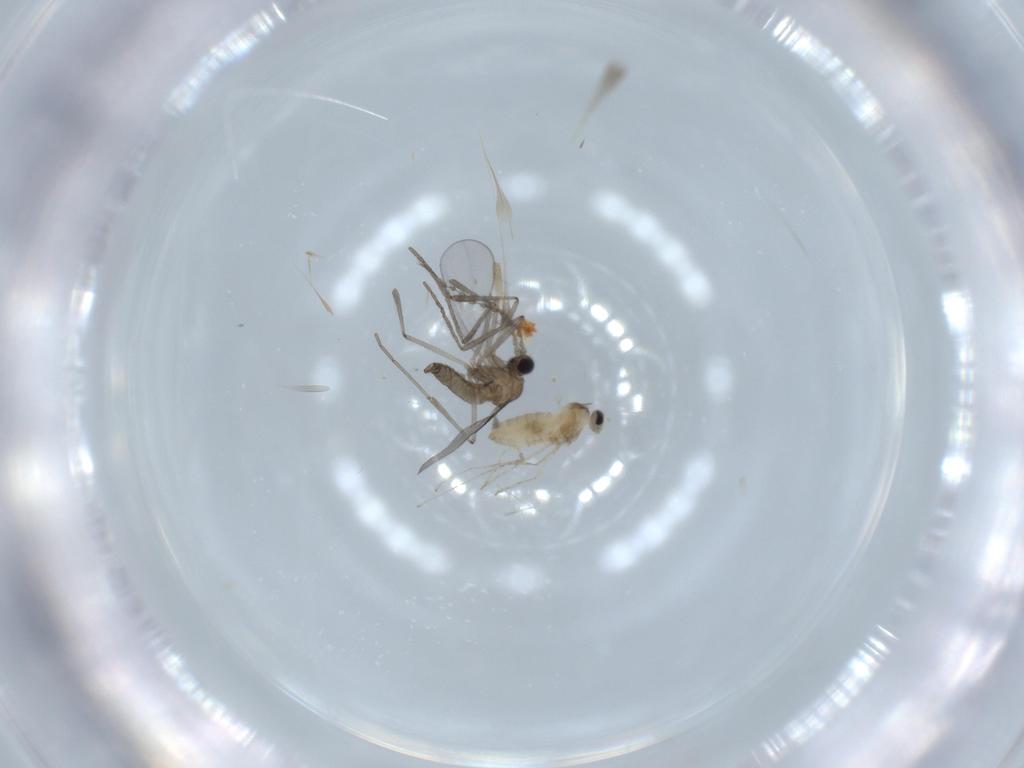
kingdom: Animalia
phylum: Arthropoda
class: Insecta
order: Diptera
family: Cecidomyiidae
